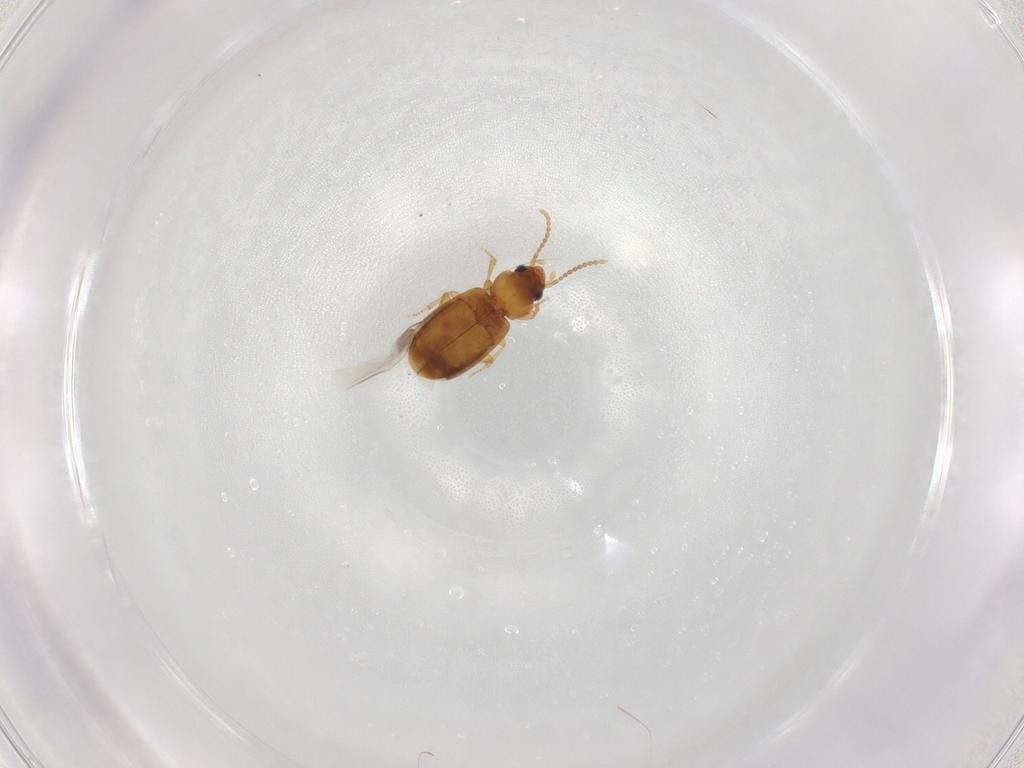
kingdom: Animalia
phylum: Arthropoda
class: Insecta
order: Coleoptera
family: Carabidae
